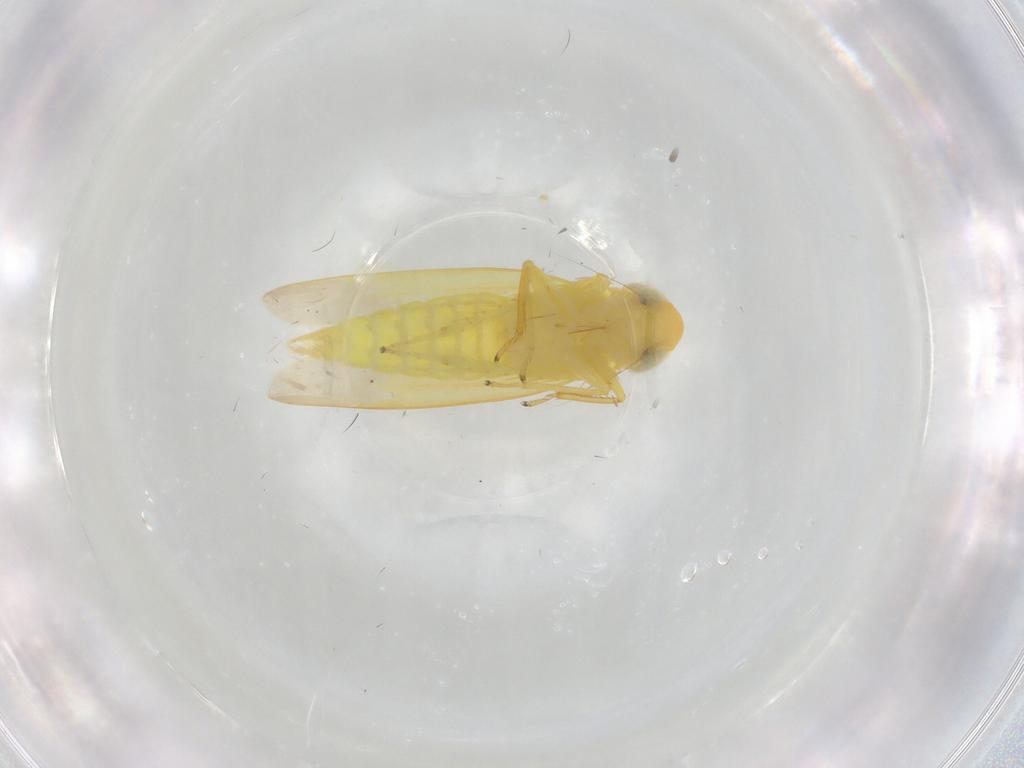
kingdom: Animalia
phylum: Arthropoda
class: Insecta
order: Hemiptera
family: Cicadellidae
